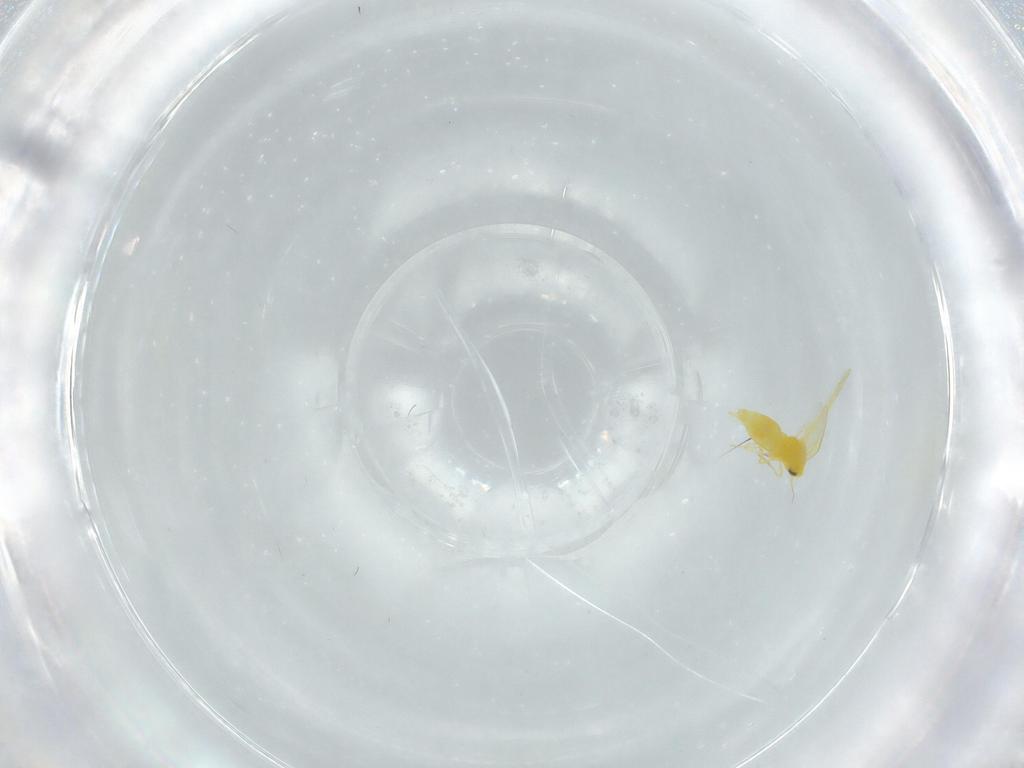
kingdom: Animalia
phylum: Arthropoda
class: Insecta
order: Hemiptera
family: Aleyrodidae
